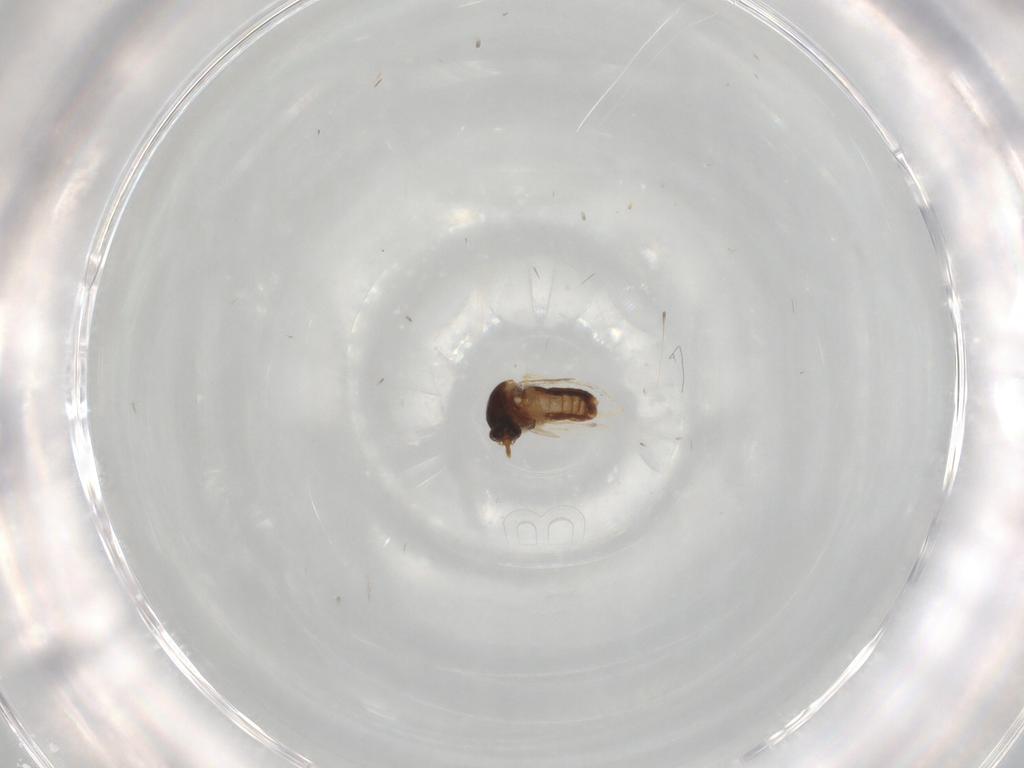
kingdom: Animalia
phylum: Arthropoda
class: Insecta
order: Diptera
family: Ceratopogonidae
